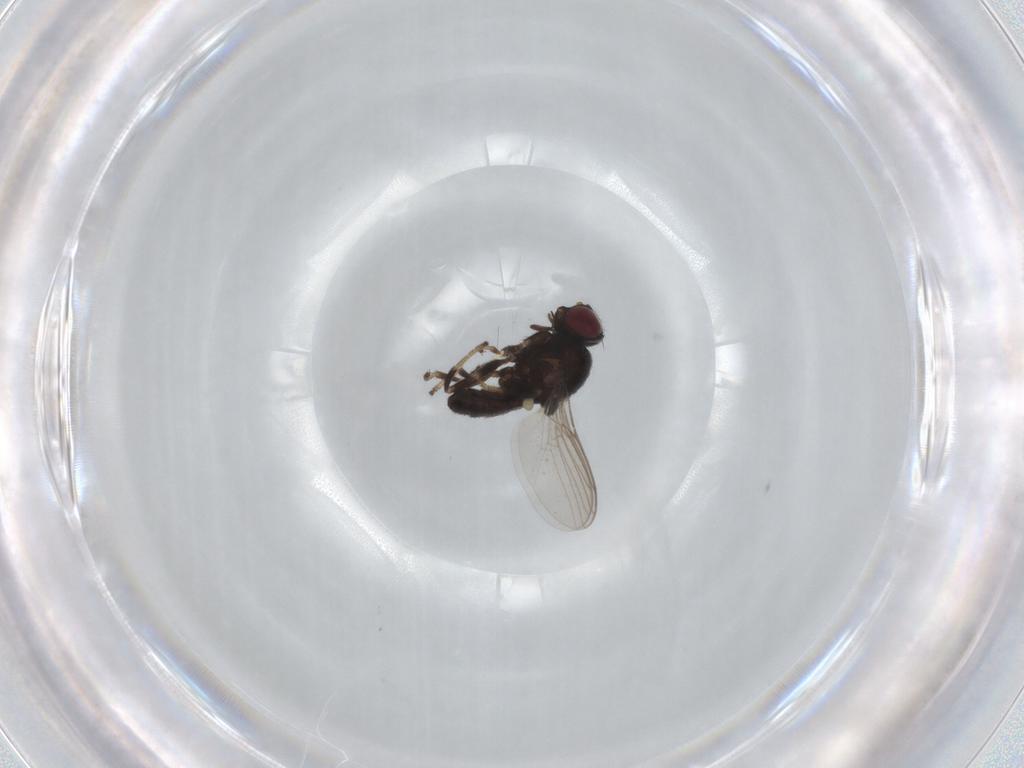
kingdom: Animalia
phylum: Arthropoda
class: Insecta
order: Diptera
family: Chloropidae
